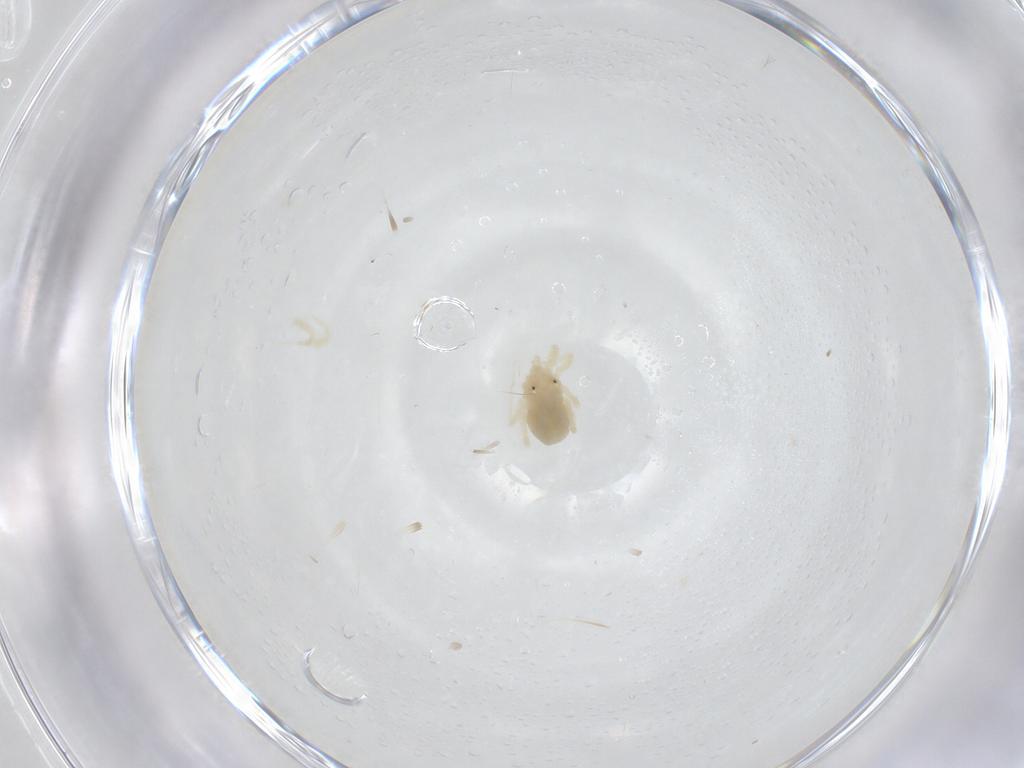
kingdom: Animalia
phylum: Arthropoda
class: Arachnida
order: Trombidiformes
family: Anystidae
